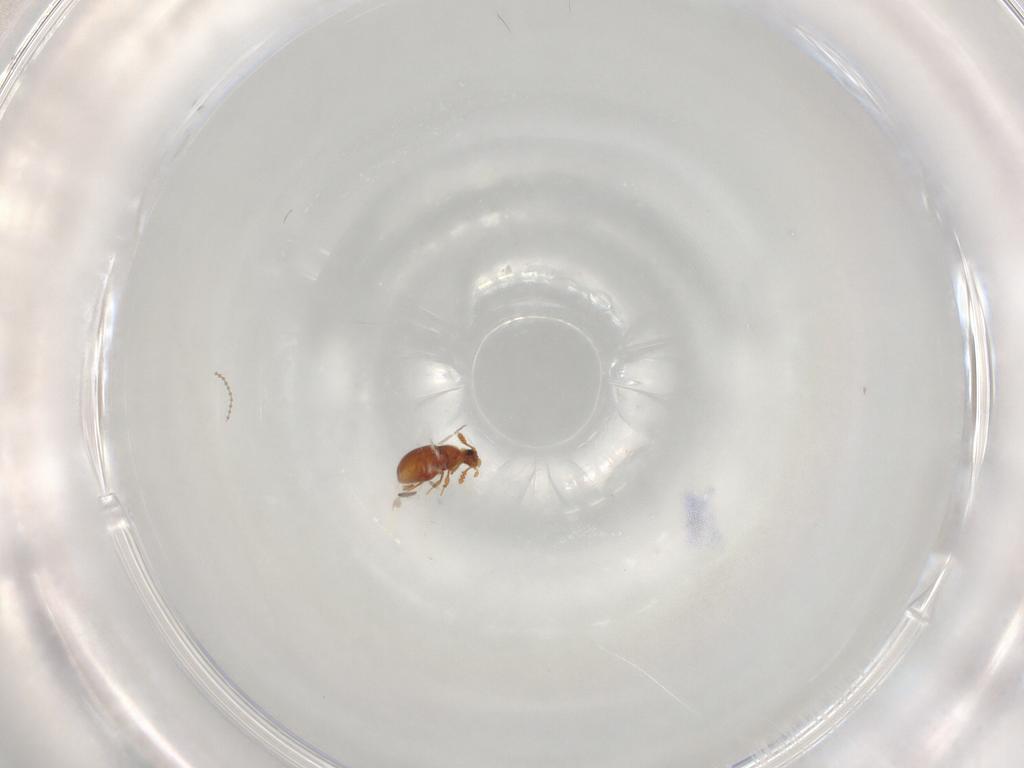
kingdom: Animalia
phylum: Arthropoda
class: Insecta
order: Coleoptera
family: Staphylinidae
